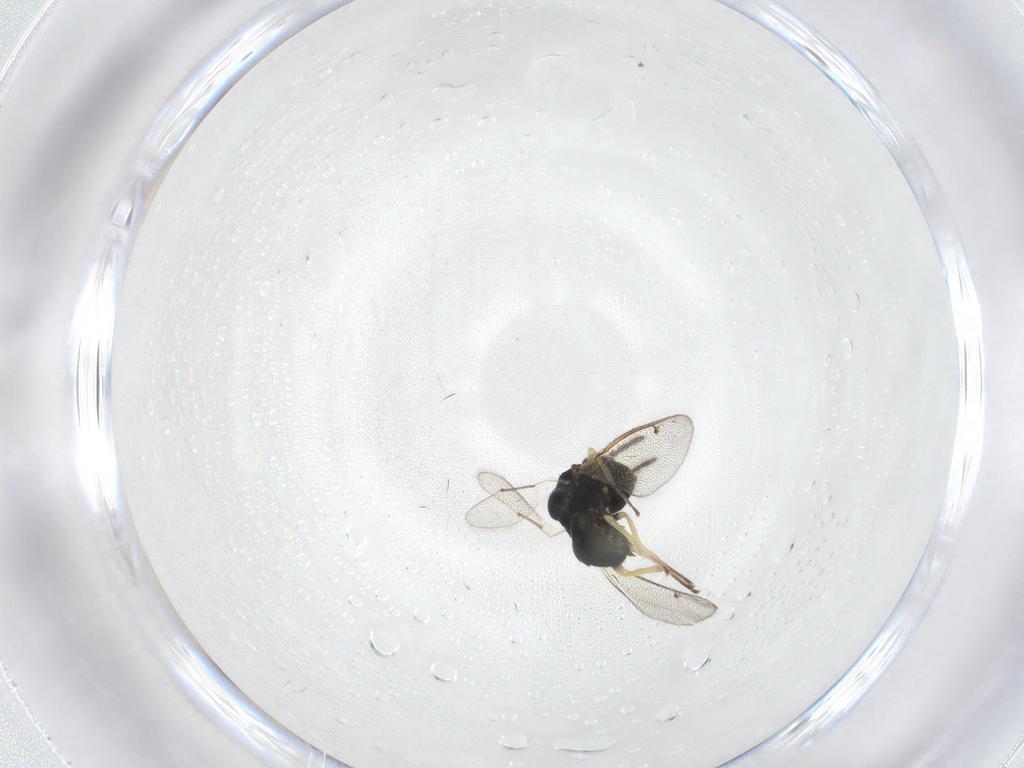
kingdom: Animalia
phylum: Arthropoda
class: Insecta
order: Hymenoptera
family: Eulophidae
